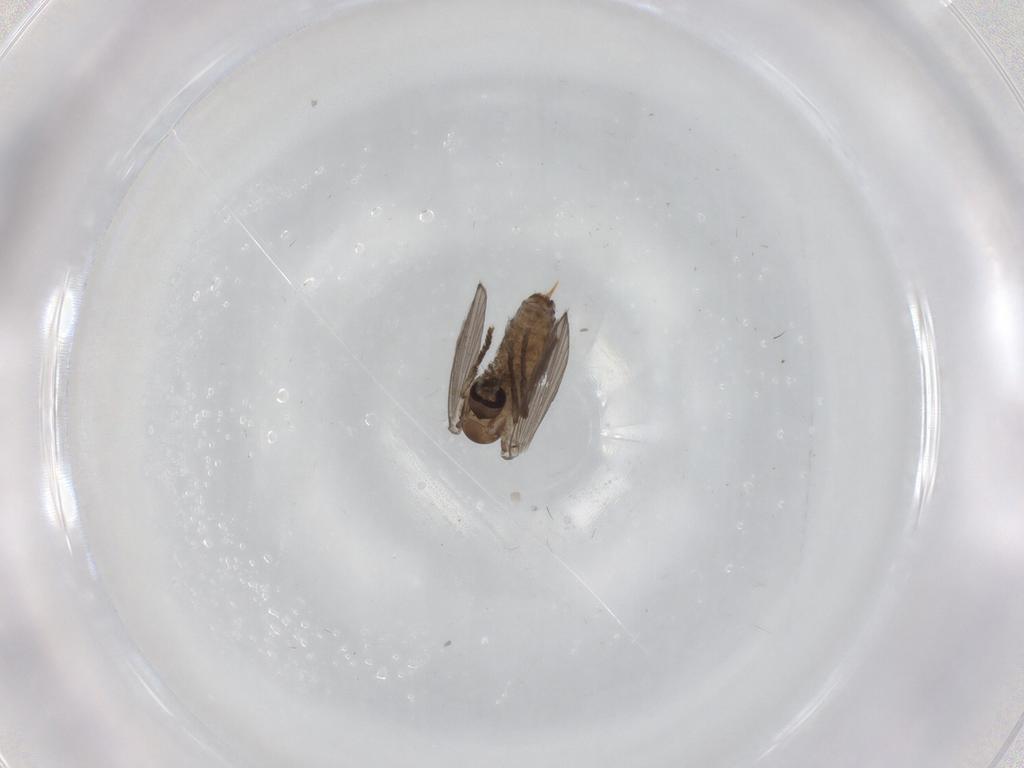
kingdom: Animalia
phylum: Arthropoda
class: Insecta
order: Diptera
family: Psychodidae
